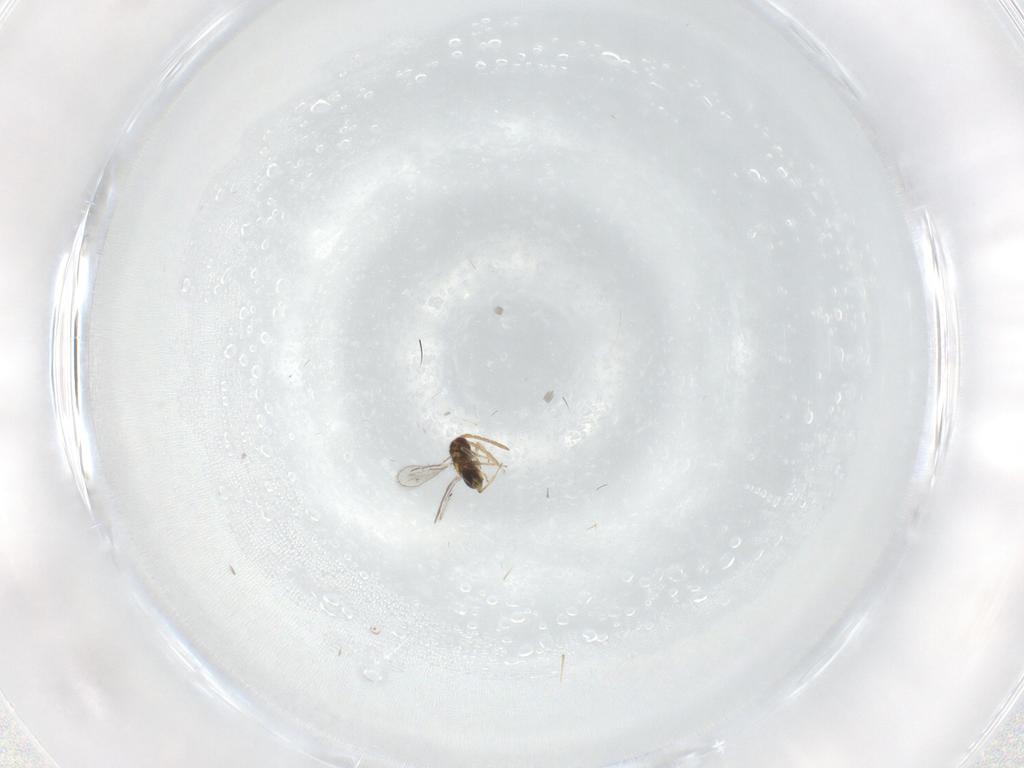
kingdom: Animalia
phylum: Arthropoda
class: Insecta
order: Hymenoptera
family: Aphelinidae
